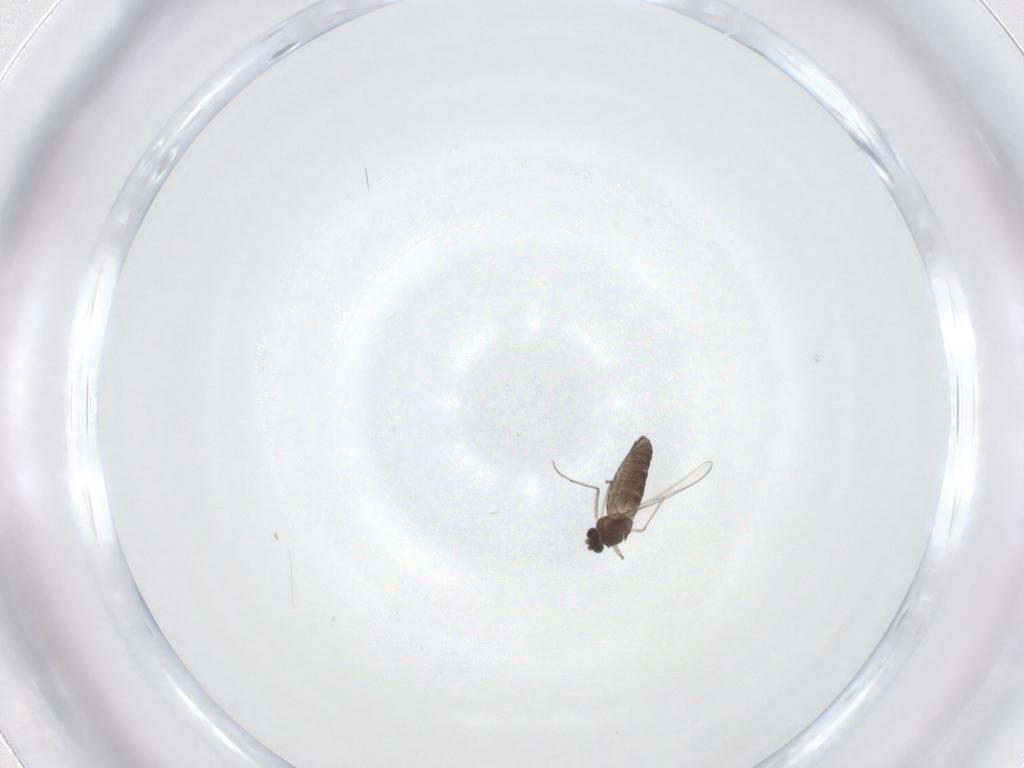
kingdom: Animalia
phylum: Arthropoda
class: Insecta
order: Diptera
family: Chironomidae
